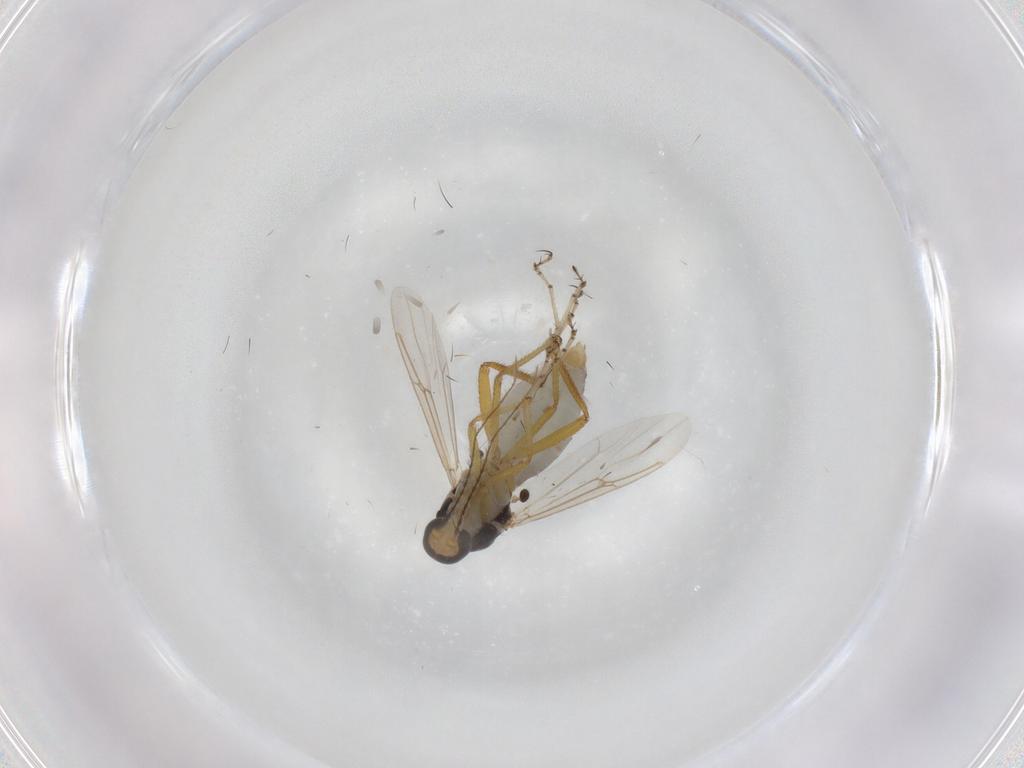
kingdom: Animalia
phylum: Arthropoda
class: Insecta
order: Diptera
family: Ceratopogonidae
